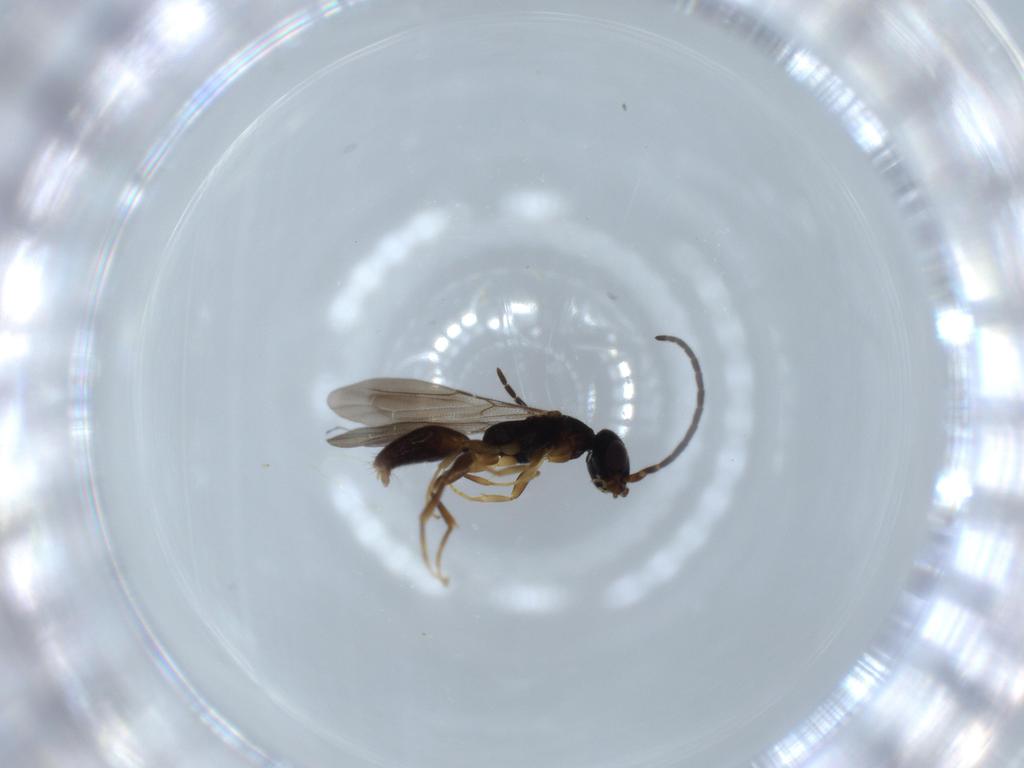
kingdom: Animalia
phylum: Arthropoda
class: Insecta
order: Hymenoptera
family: Bethylidae
